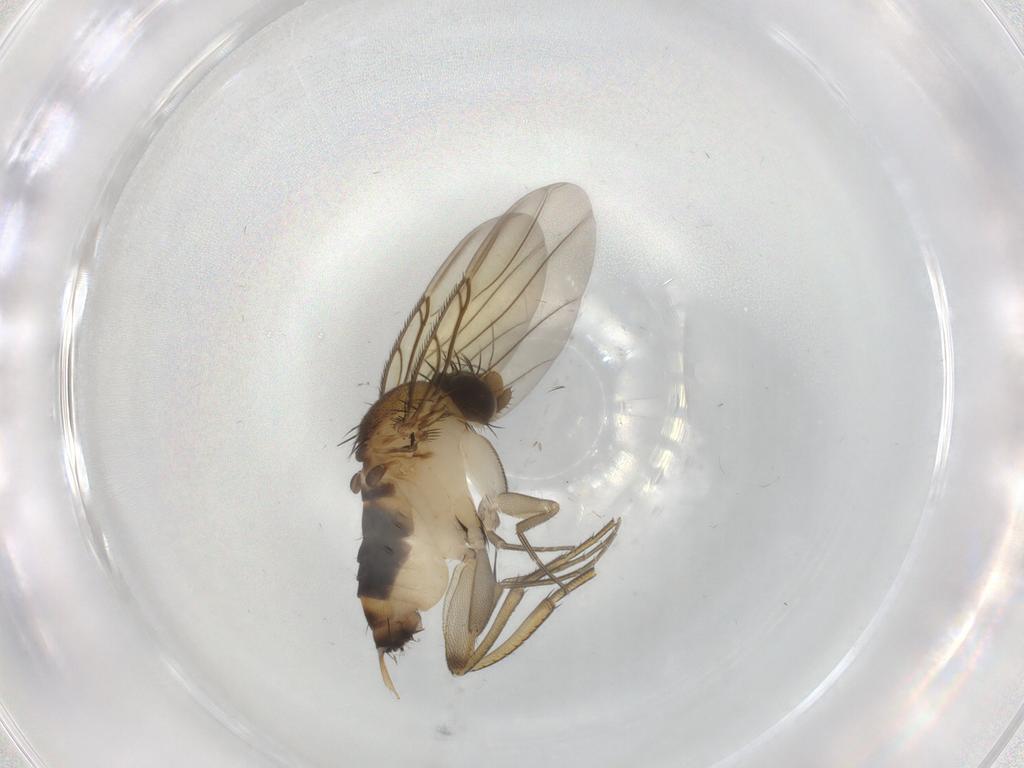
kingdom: Animalia
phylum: Arthropoda
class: Insecta
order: Diptera
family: Phoridae
